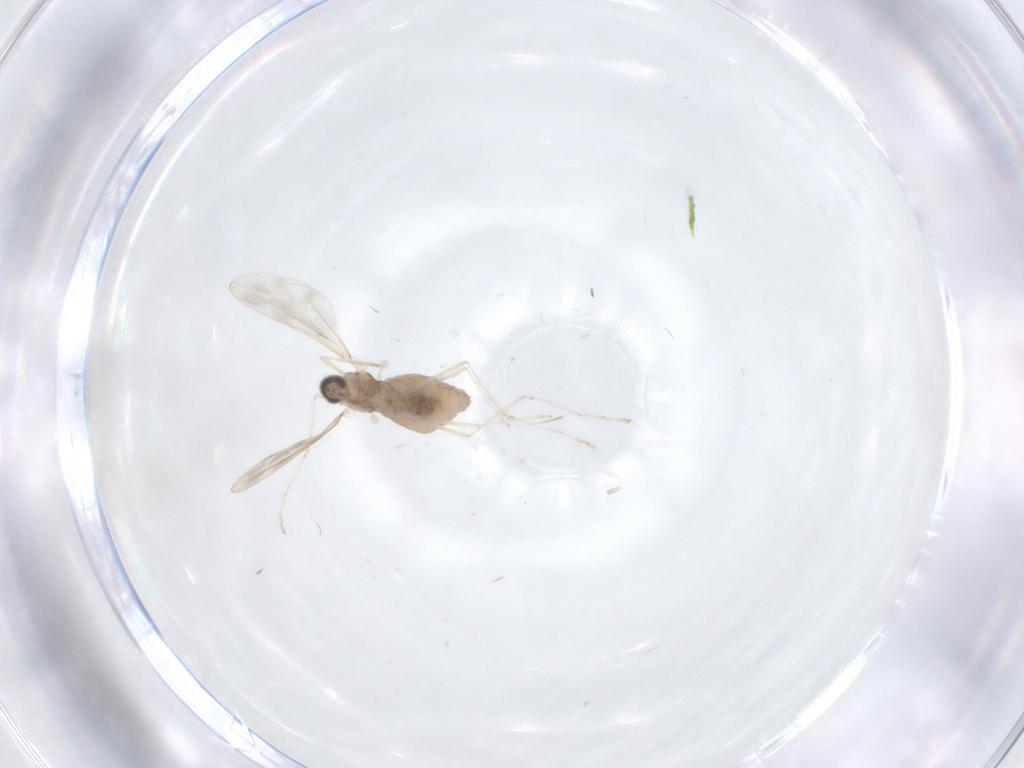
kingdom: Animalia
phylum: Arthropoda
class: Insecta
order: Diptera
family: Cecidomyiidae
